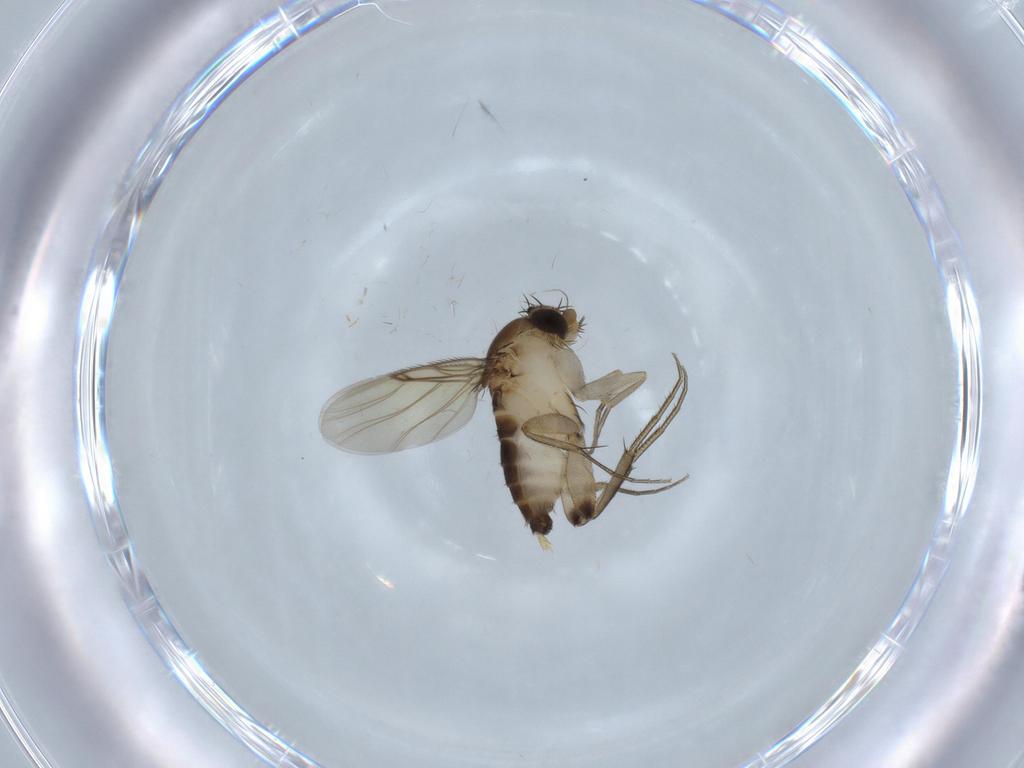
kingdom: Animalia
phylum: Arthropoda
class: Insecta
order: Diptera
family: Phoridae
